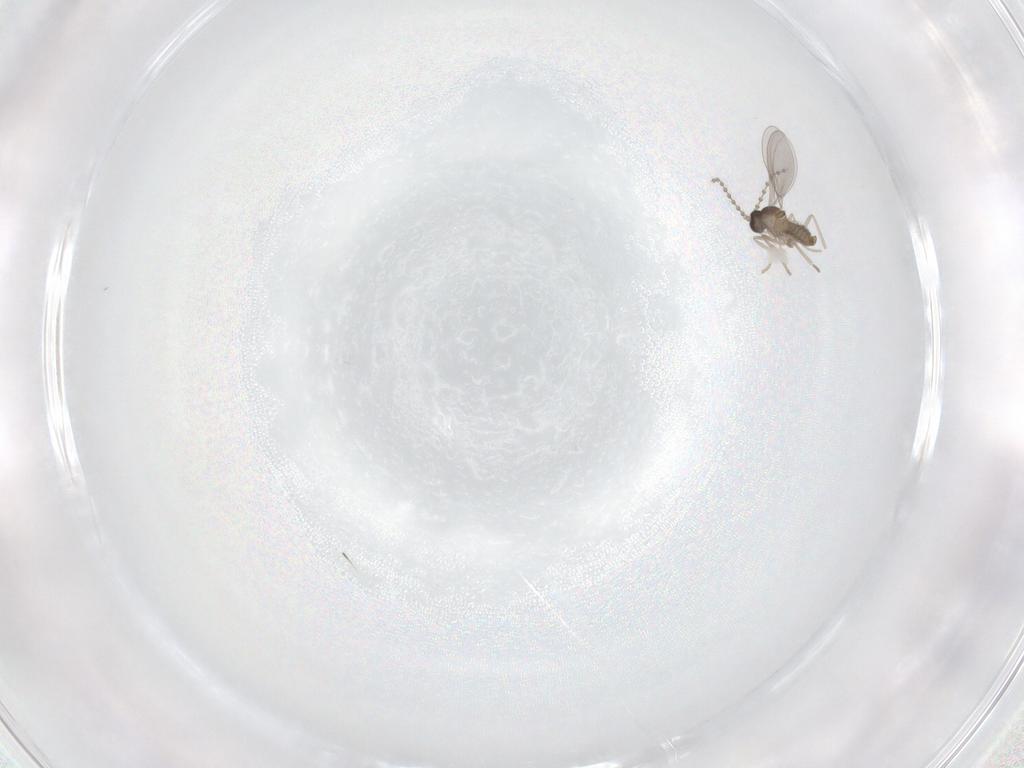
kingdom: Animalia
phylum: Arthropoda
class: Insecta
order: Diptera
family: Cecidomyiidae
